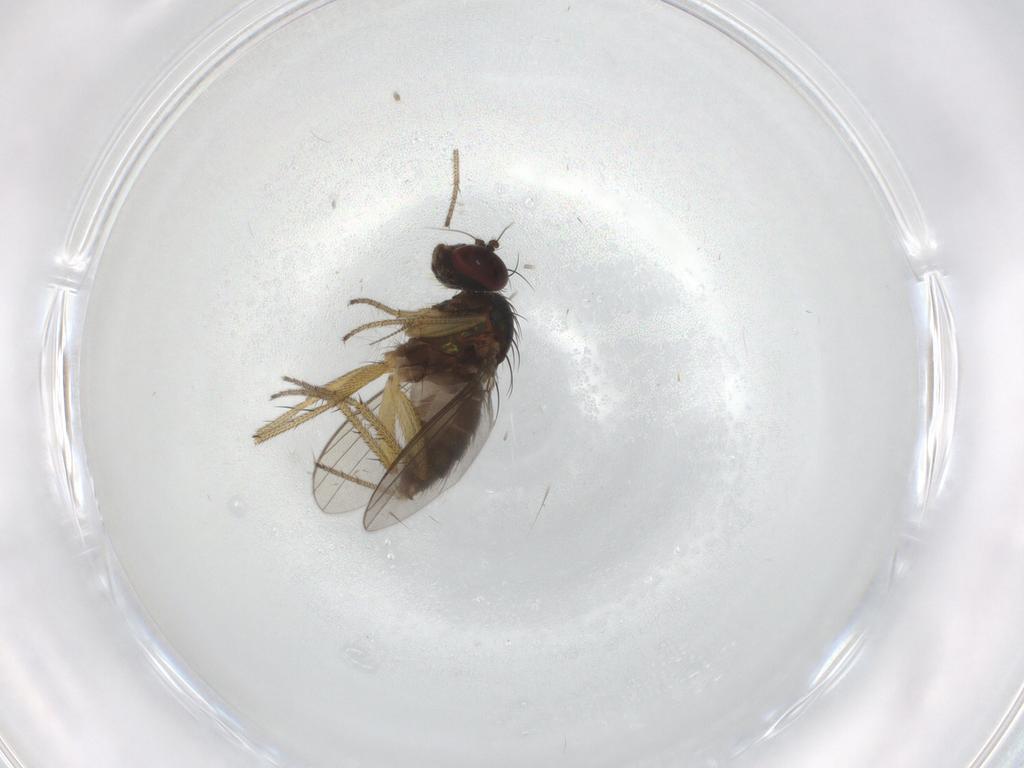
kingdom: Animalia
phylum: Arthropoda
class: Insecta
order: Diptera
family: Dolichopodidae
